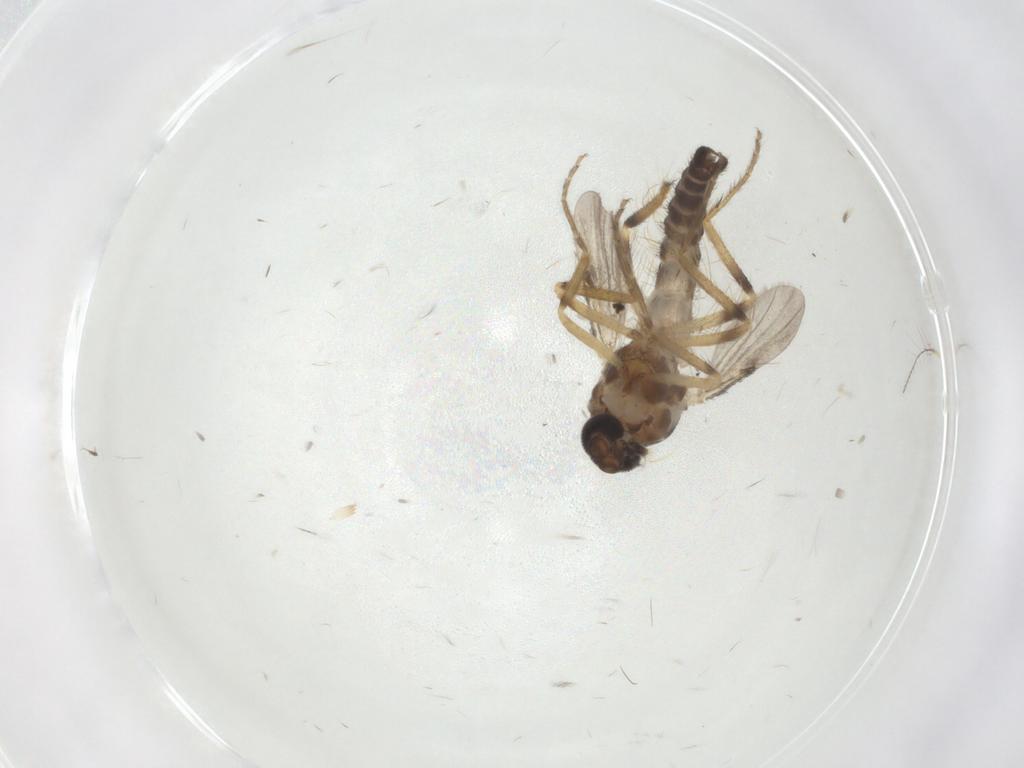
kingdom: Animalia
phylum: Arthropoda
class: Insecta
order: Diptera
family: Ceratopogonidae
